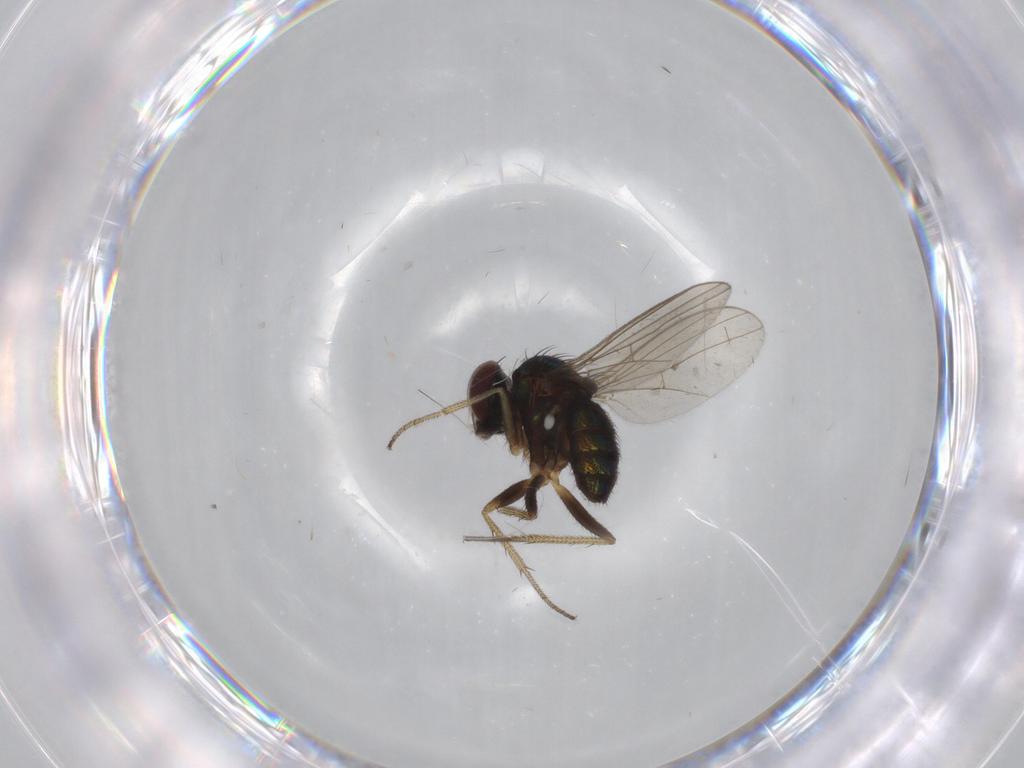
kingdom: Animalia
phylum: Arthropoda
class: Insecta
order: Diptera
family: Dolichopodidae
